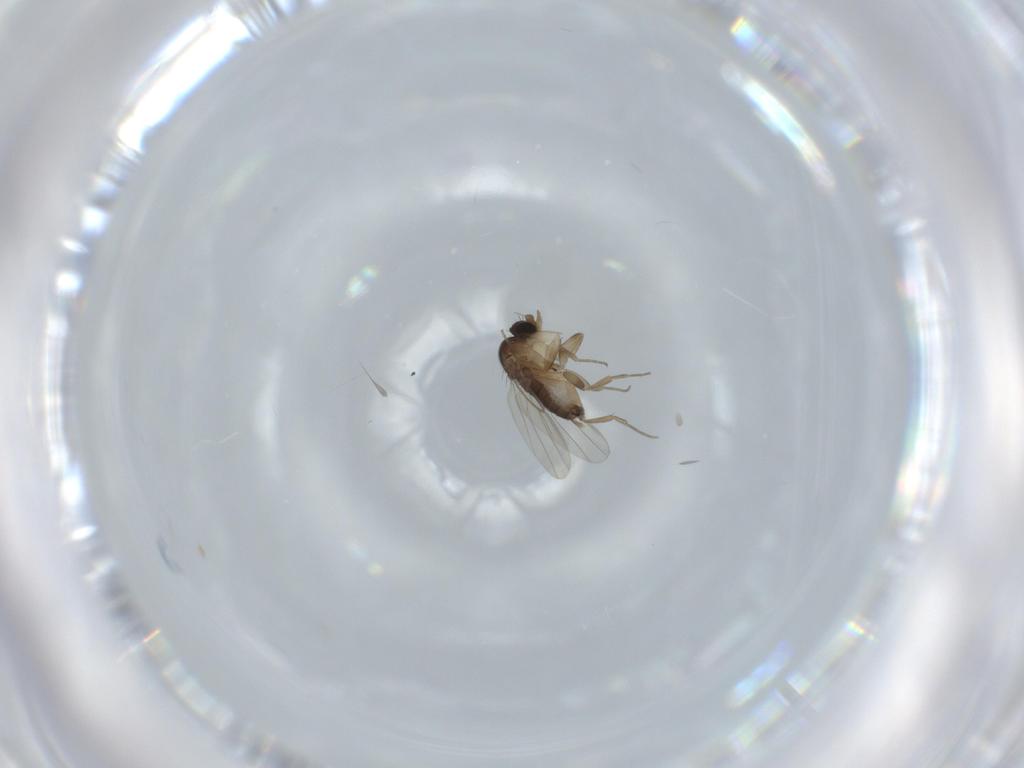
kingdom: Animalia
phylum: Arthropoda
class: Insecta
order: Diptera
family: Phoridae
